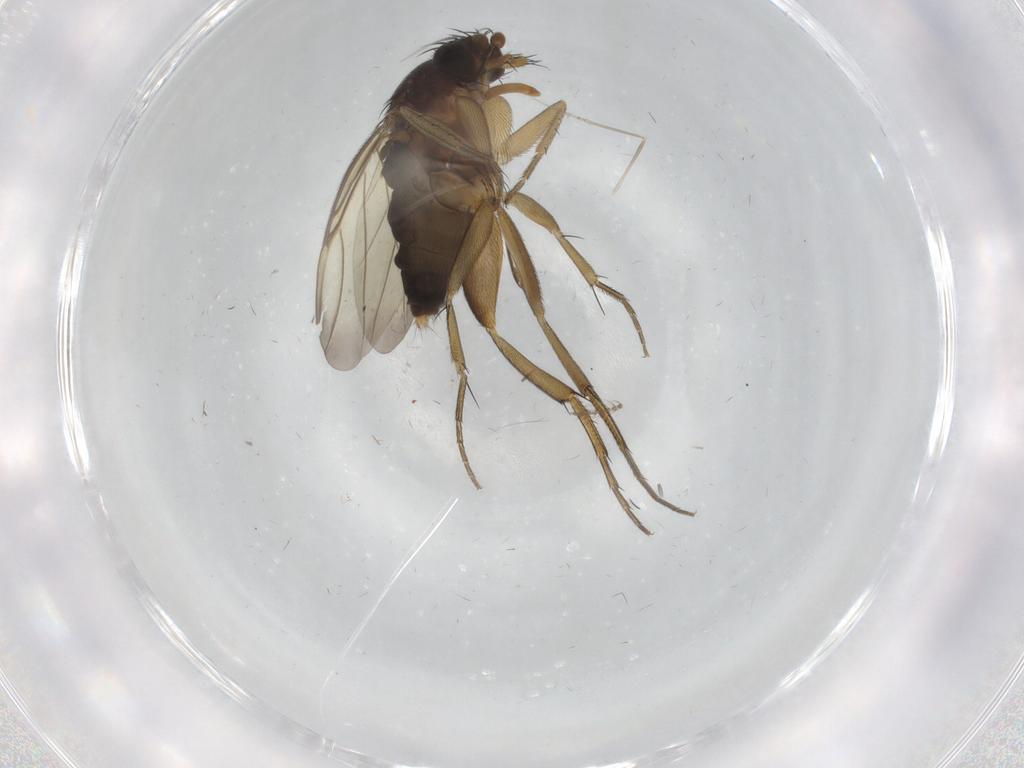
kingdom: Animalia
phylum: Arthropoda
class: Insecta
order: Diptera
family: Phoridae
